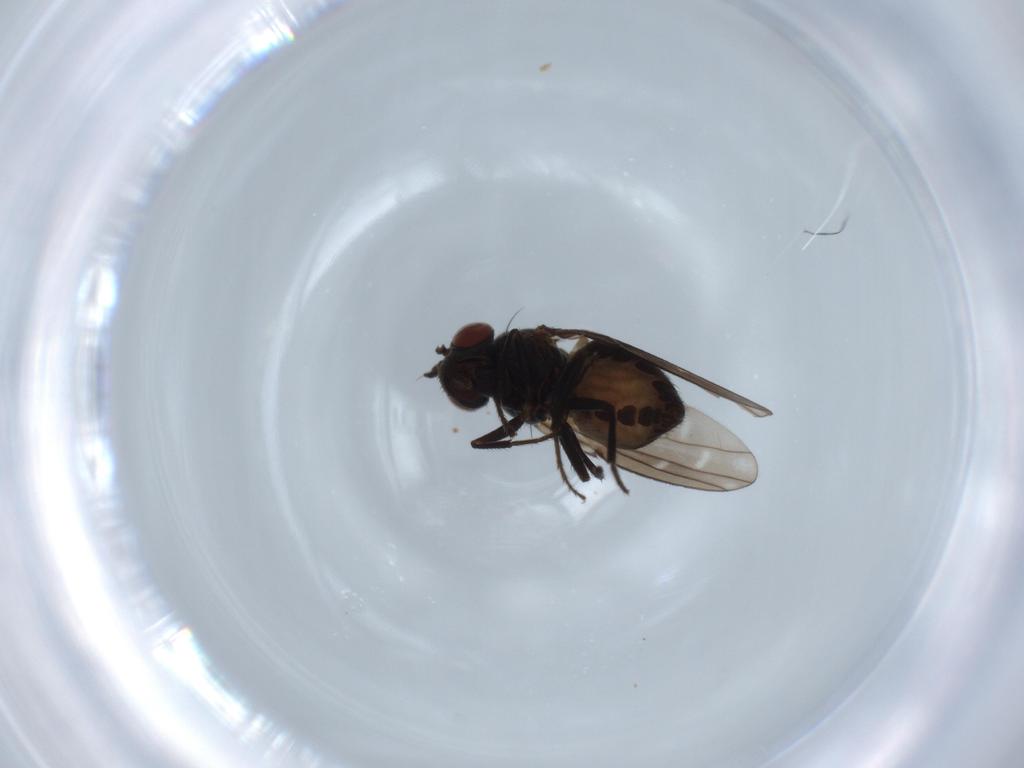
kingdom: Animalia
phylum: Arthropoda
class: Insecta
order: Diptera
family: Ephydridae
